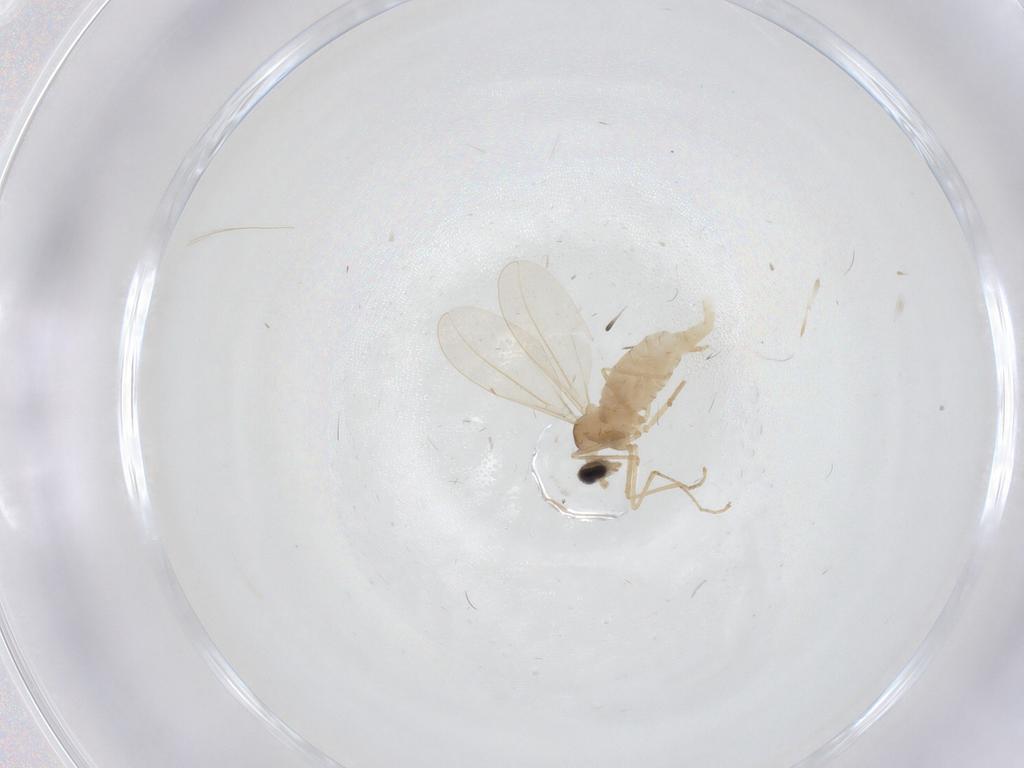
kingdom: Animalia
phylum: Arthropoda
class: Insecta
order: Diptera
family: Cecidomyiidae
